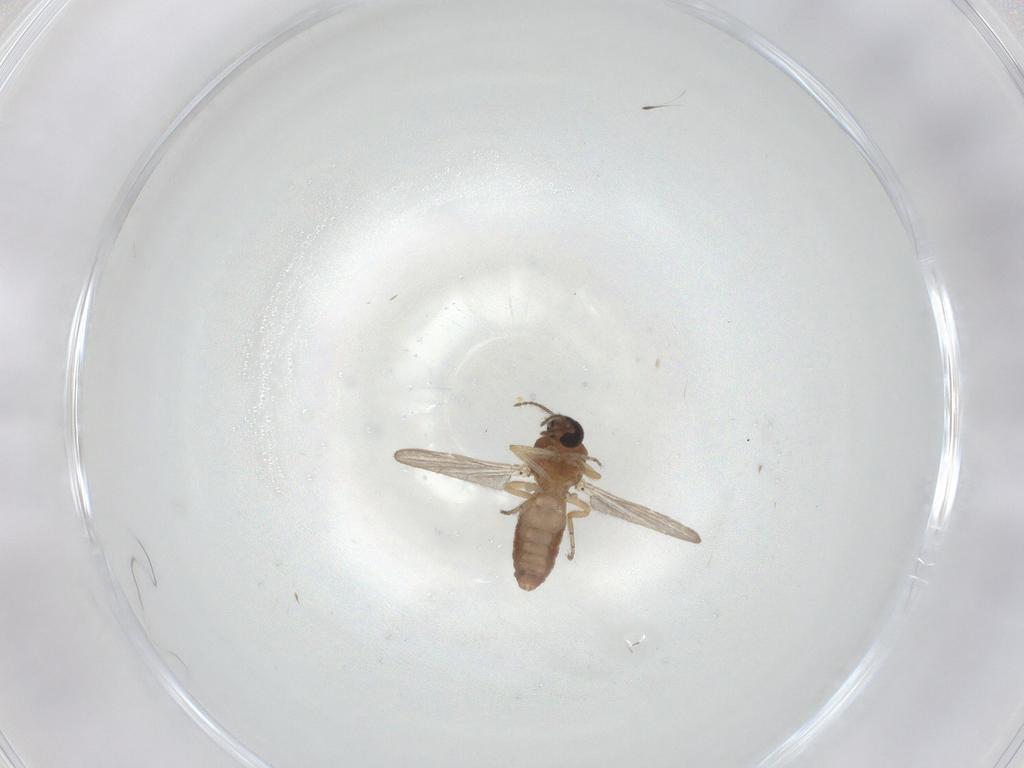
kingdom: Animalia
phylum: Arthropoda
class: Insecta
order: Diptera
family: Ceratopogonidae
